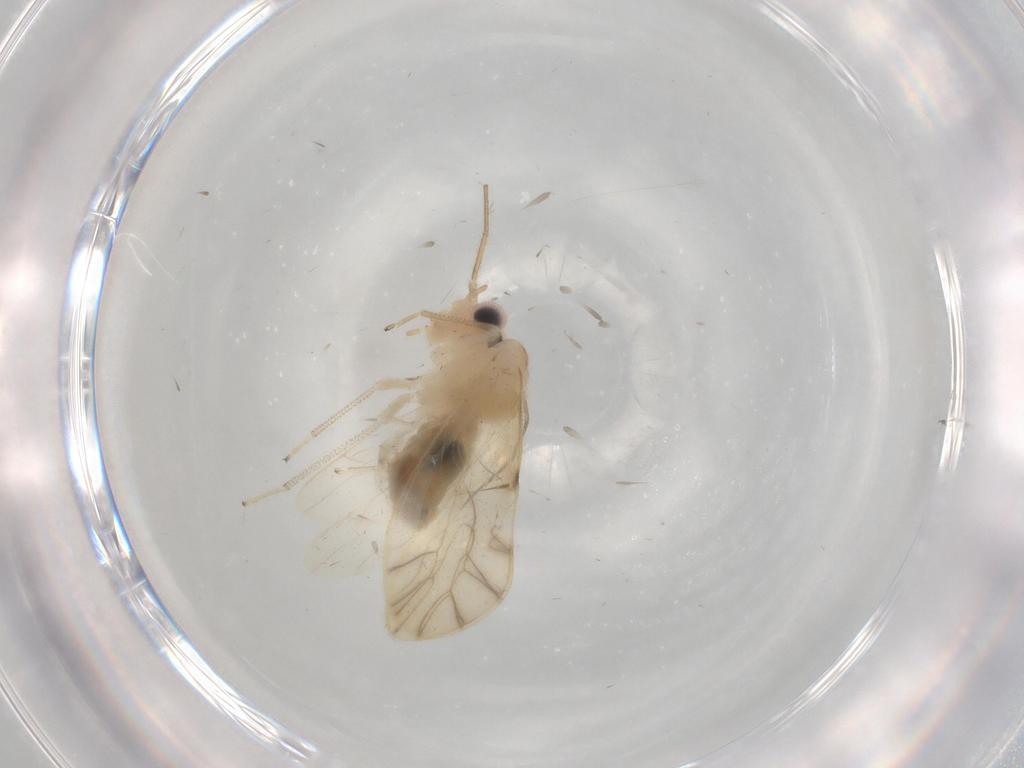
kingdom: Animalia
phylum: Arthropoda
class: Insecta
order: Psocodea
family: Caeciliusidae
